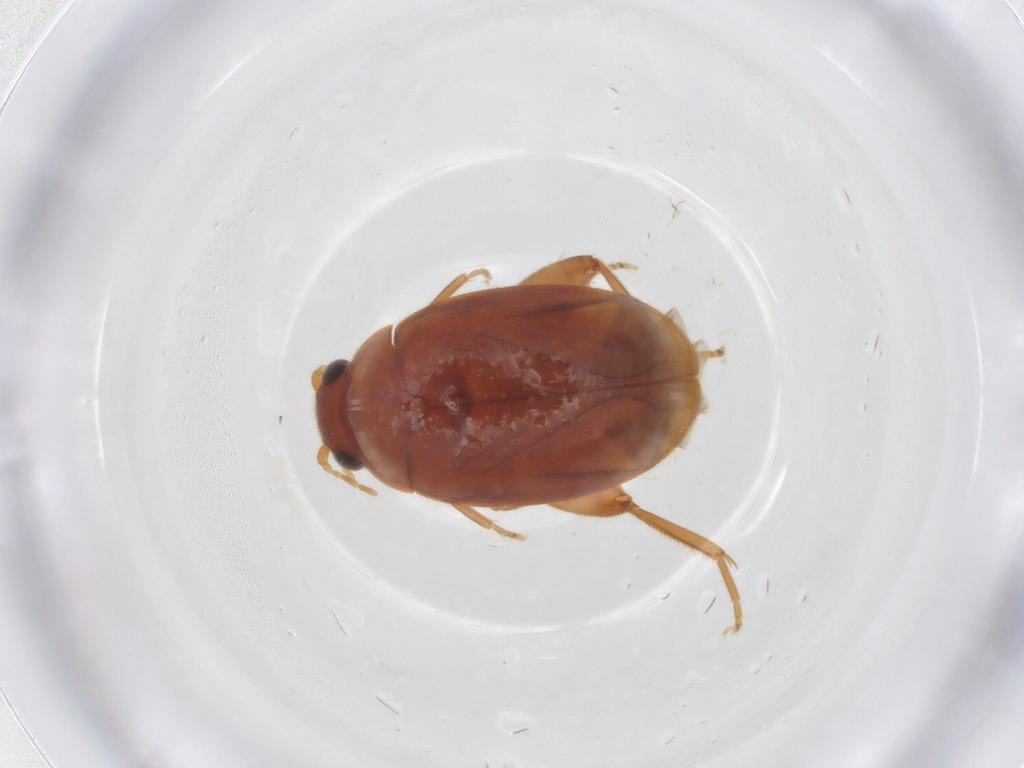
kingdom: Animalia
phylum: Arthropoda
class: Insecta
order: Coleoptera
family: Scirtidae
